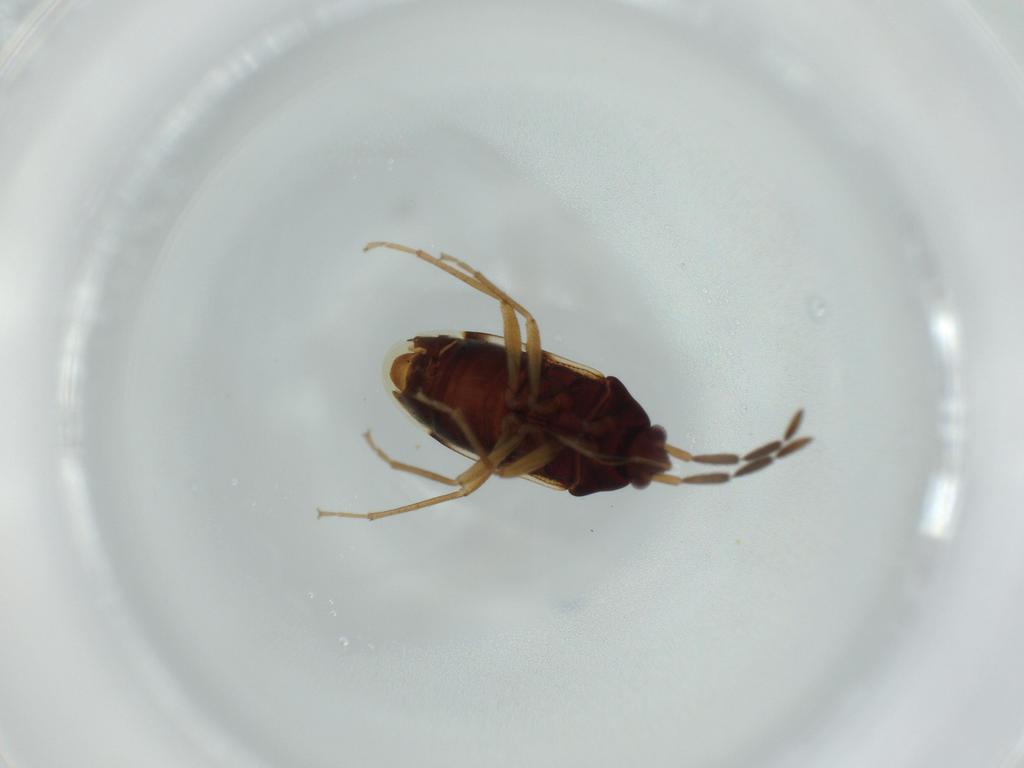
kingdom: Animalia
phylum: Arthropoda
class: Insecta
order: Hemiptera
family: Rhyparochromidae
